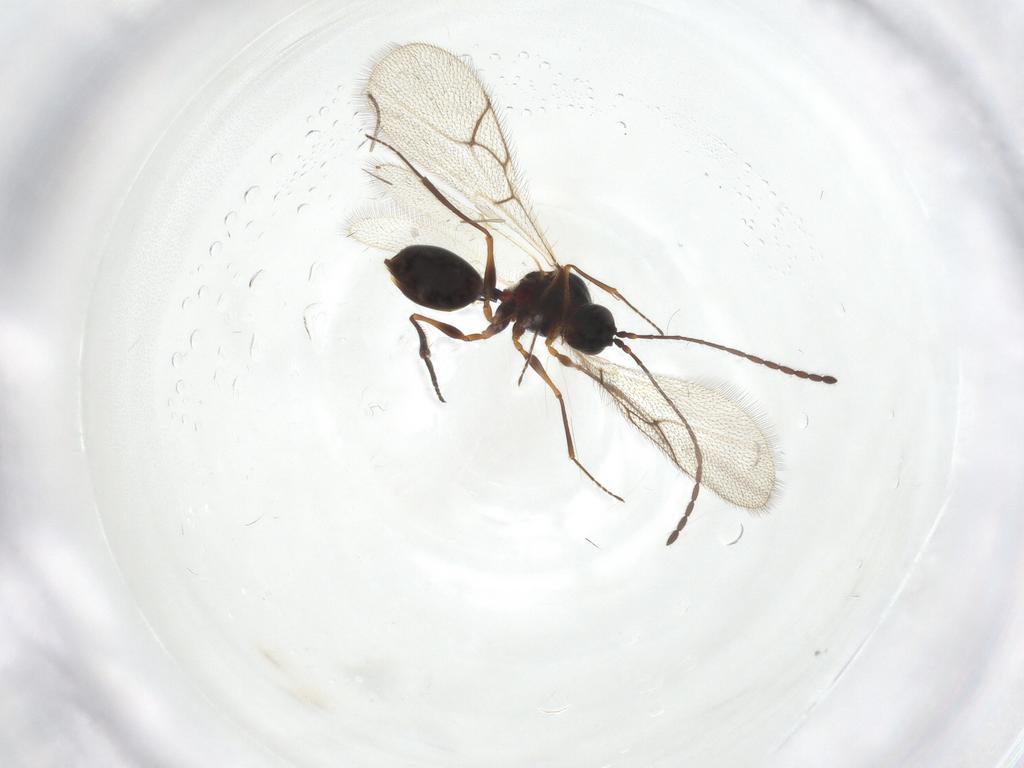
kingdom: Animalia
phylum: Arthropoda
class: Insecta
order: Hymenoptera
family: Figitidae
